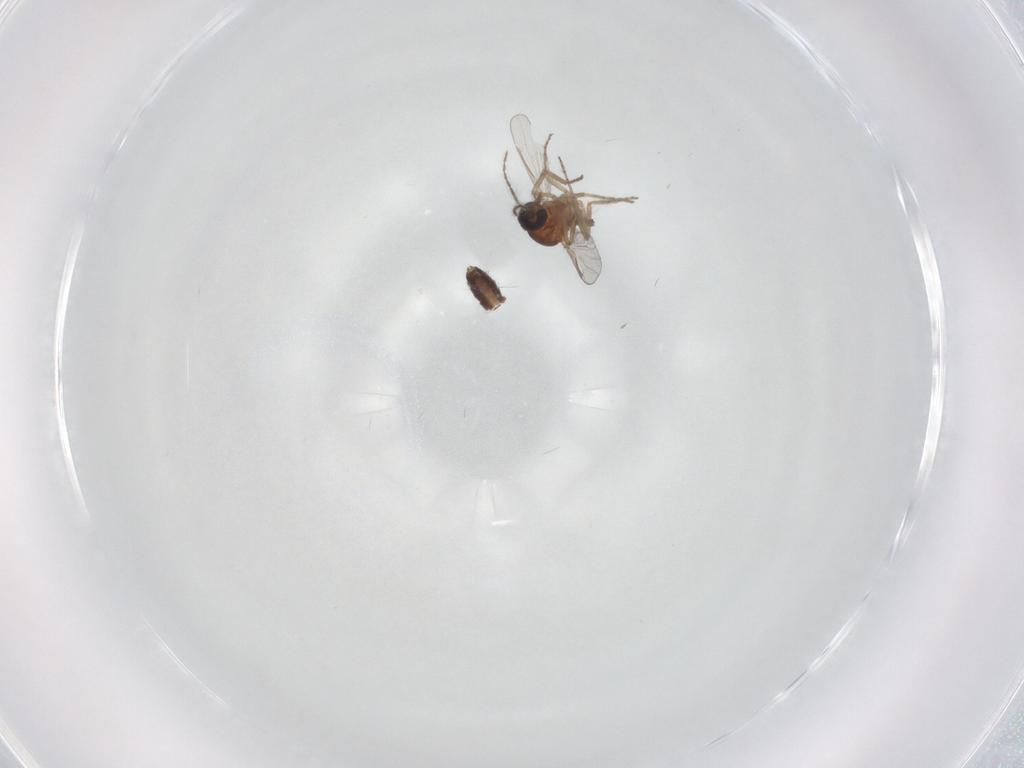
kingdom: Animalia
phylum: Arthropoda
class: Insecta
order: Diptera
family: Ceratopogonidae
